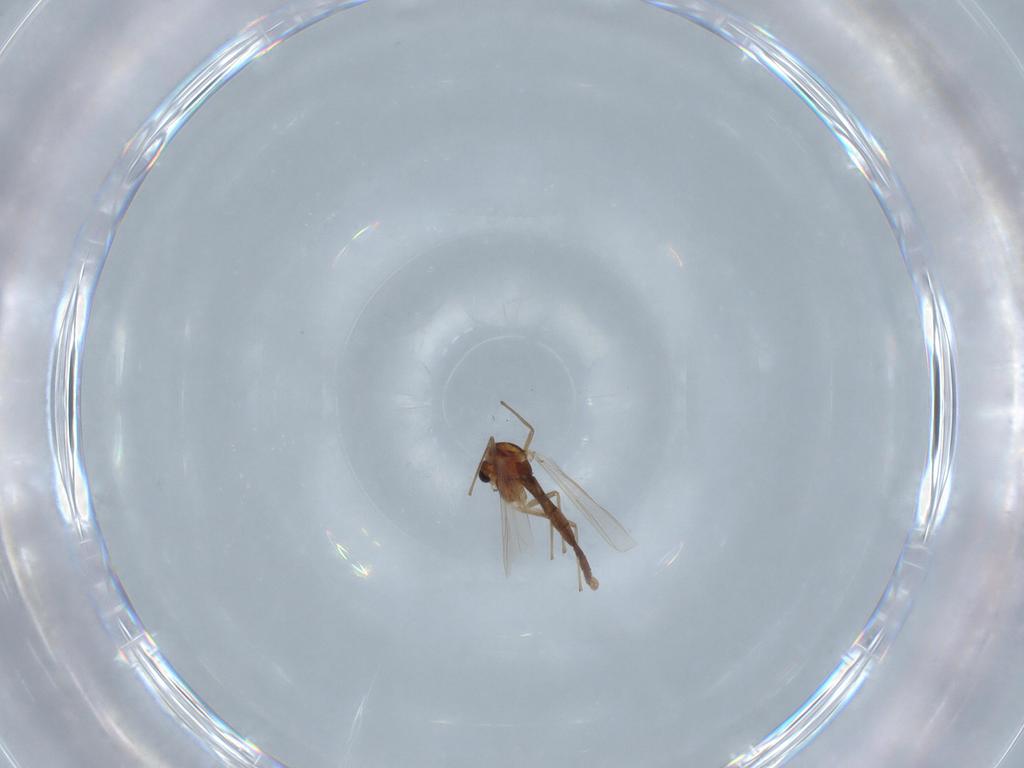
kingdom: Animalia
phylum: Arthropoda
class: Insecta
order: Diptera
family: Chironomidae
